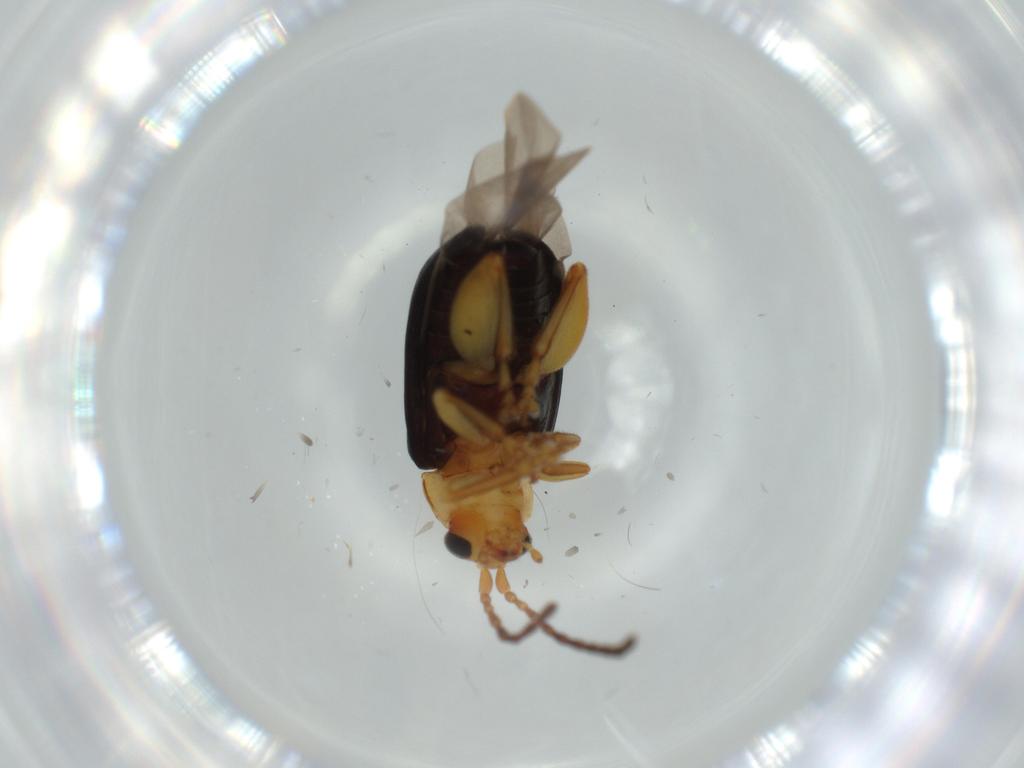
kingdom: Animalia
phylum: Arthropoda
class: Insecta
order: Coleoptera
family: Chrysomelidae
